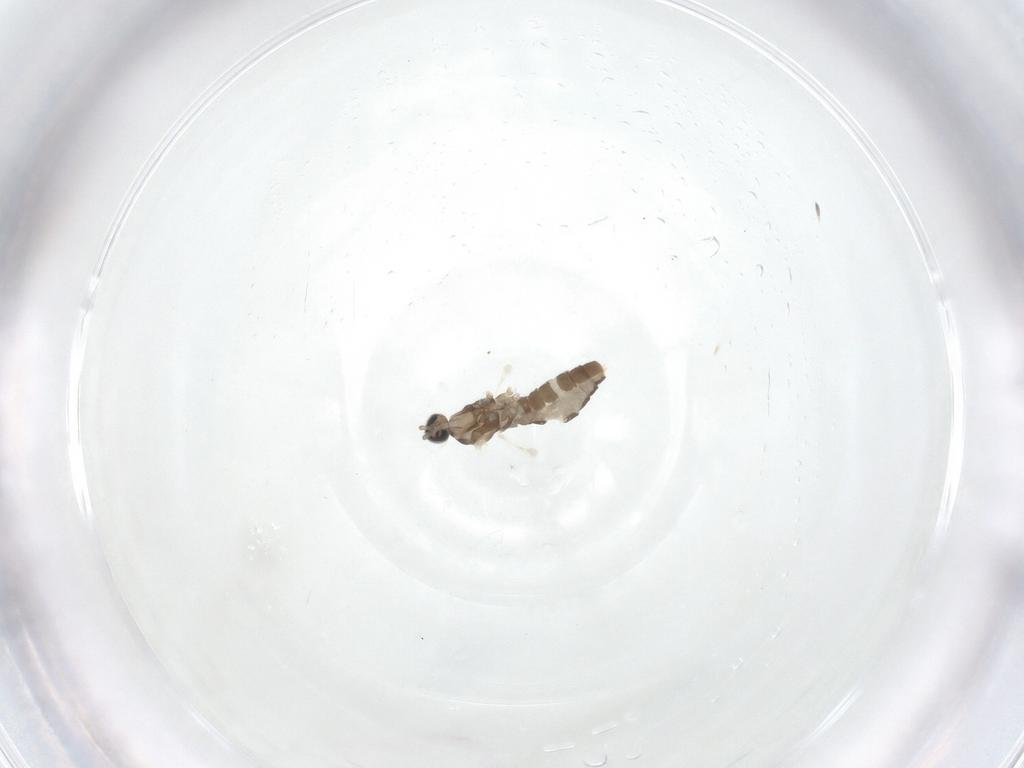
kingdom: Animalia
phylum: Arthropoda
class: Insecta
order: Diptera
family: Cecidomyiidae
